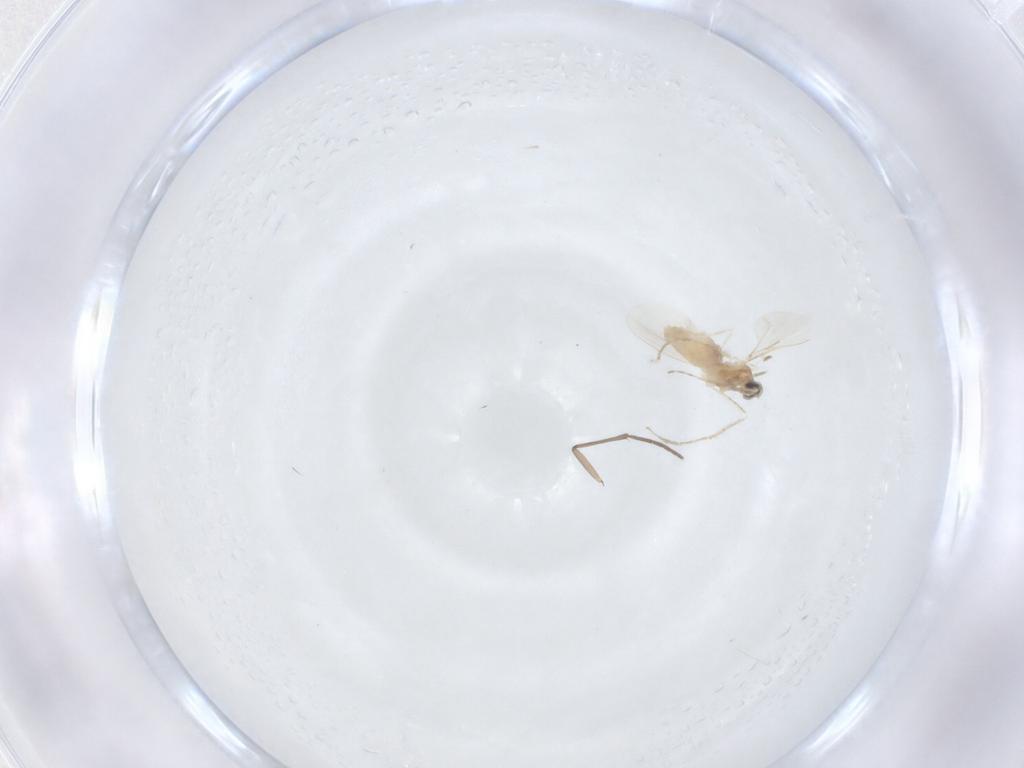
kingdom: Animalia
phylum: Arthropoda
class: Insecta
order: Diptera
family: Cecidomyiidae
